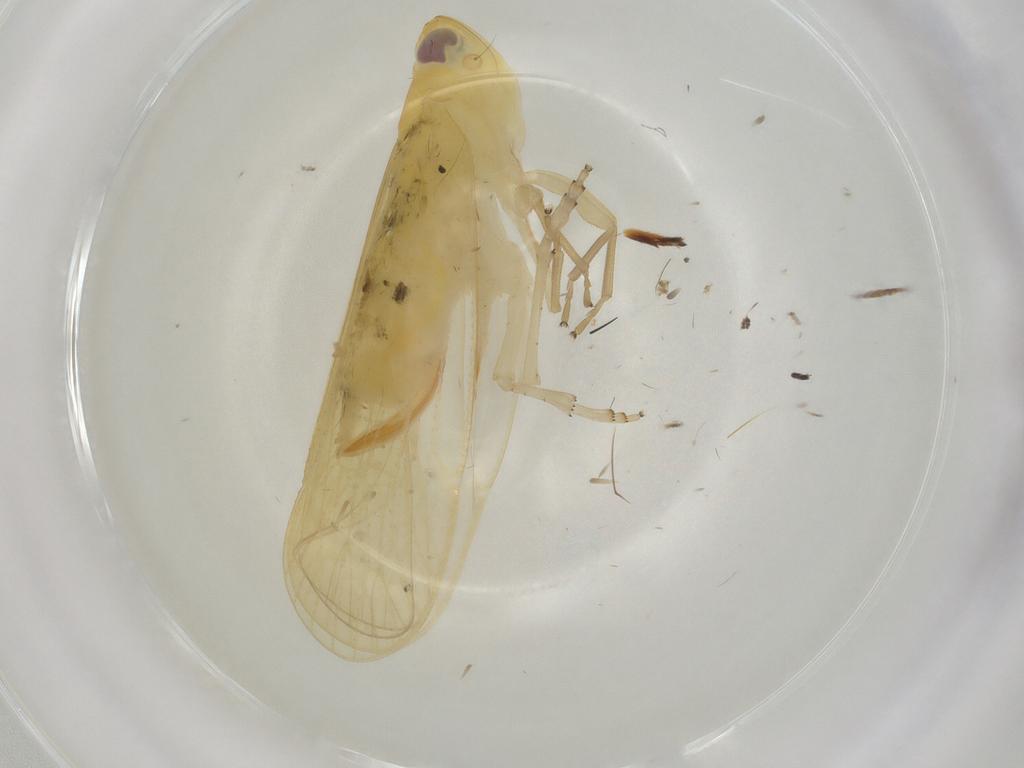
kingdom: Animalia
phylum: Arthropoda
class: Insecta
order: Hemiptera
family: Cixiidae
